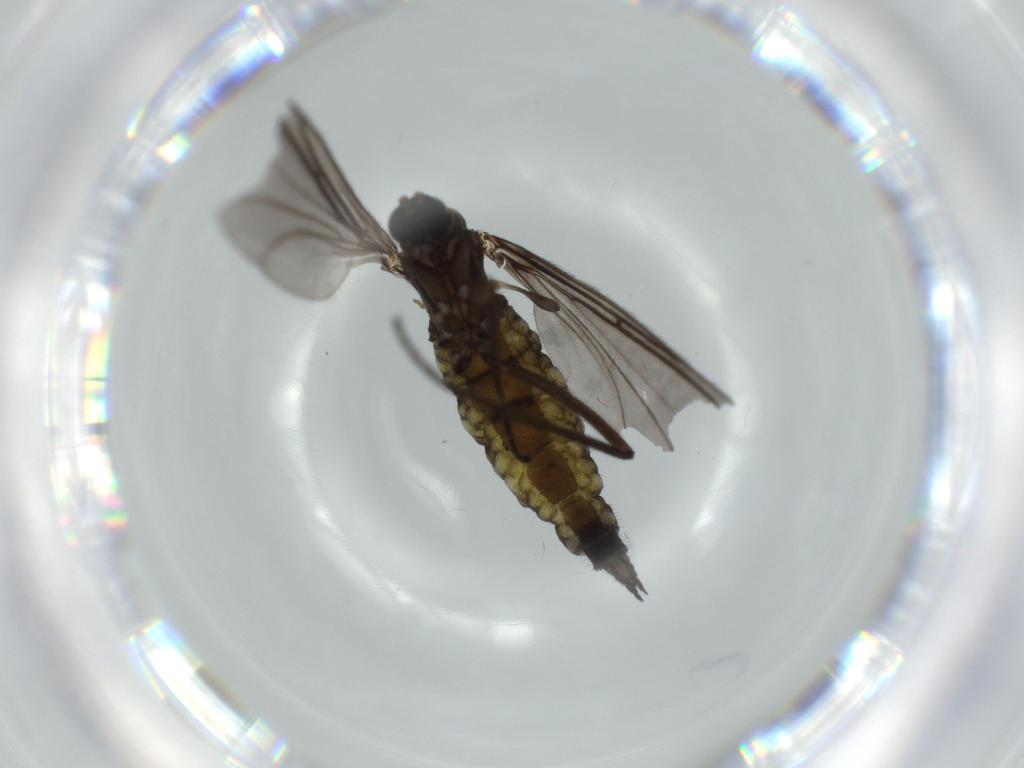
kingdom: Animalia
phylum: Arthropoda
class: Insecta
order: Diptera
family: Sciaridae
